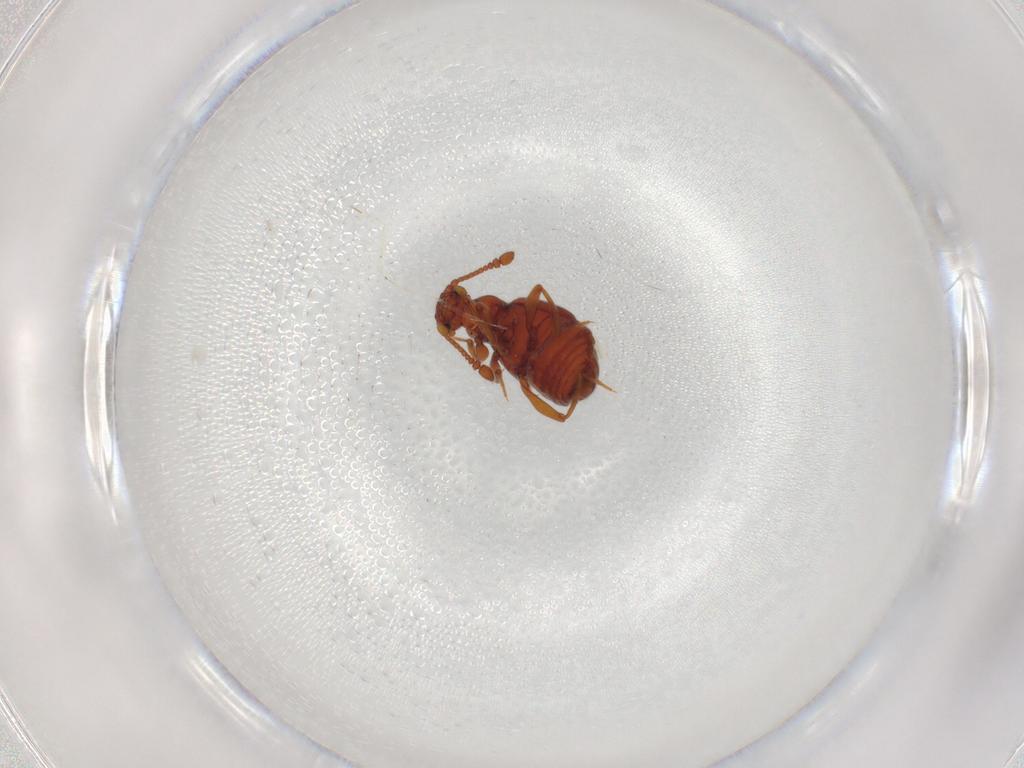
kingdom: Animalia
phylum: Arthropoda
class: Insecta
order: Coleoptera
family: Staphylinidae
